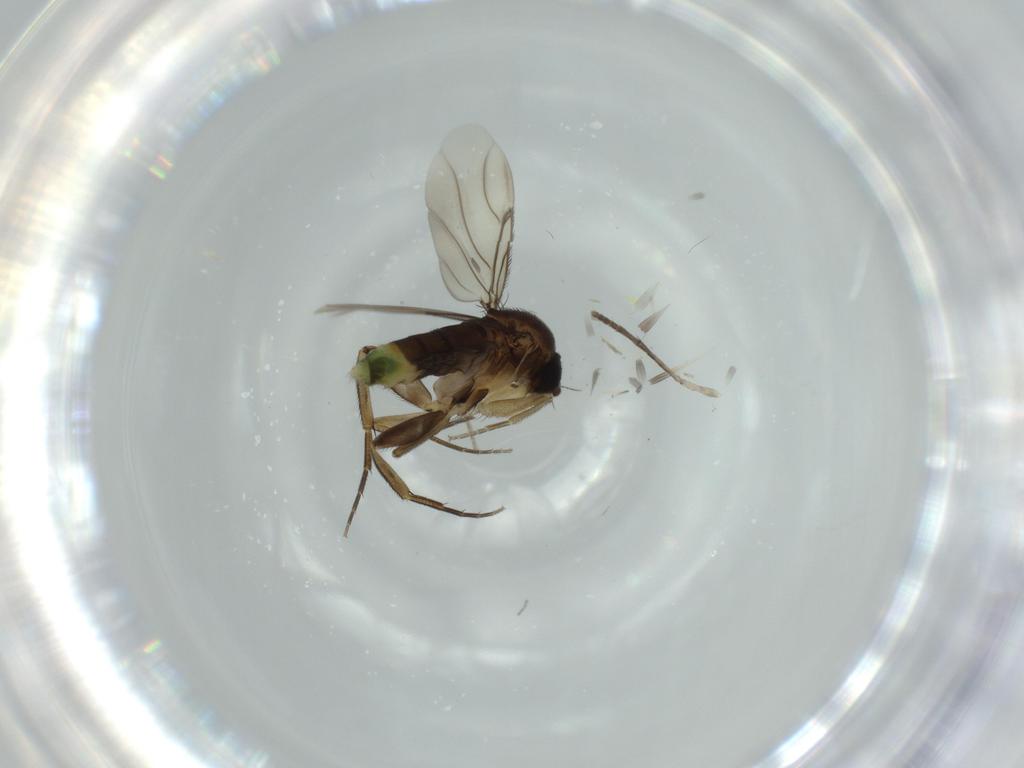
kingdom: Animalia
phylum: Arthropoda
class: Insecta
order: Diptera
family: Phoridae
